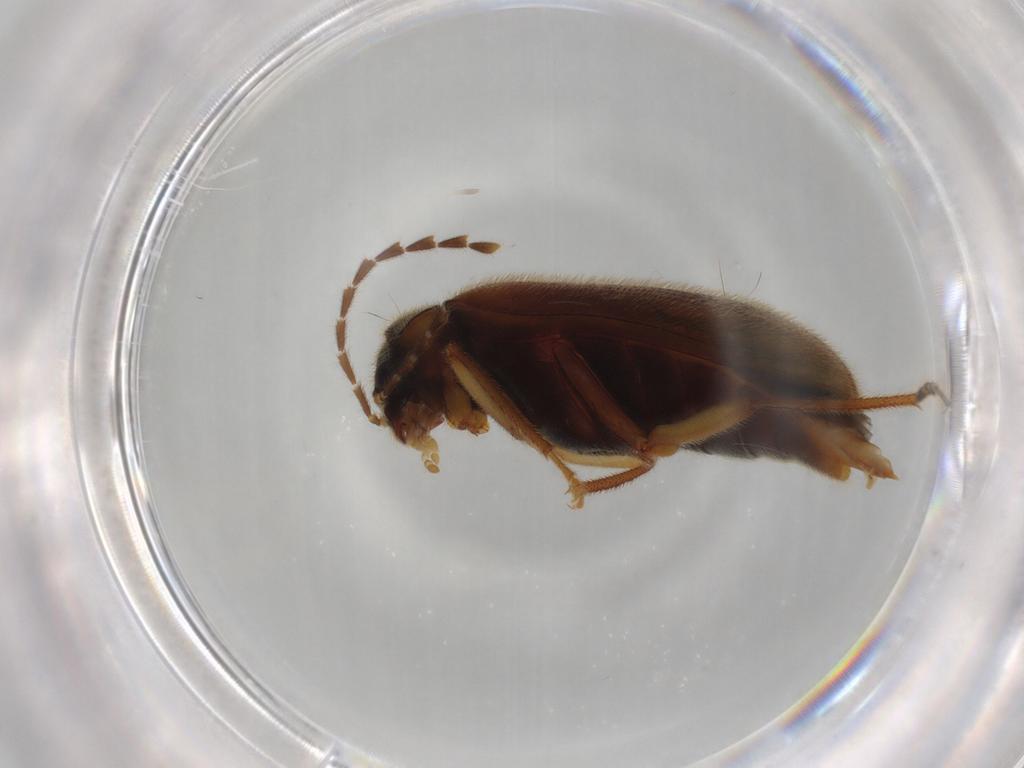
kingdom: Animalia
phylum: Arthropoda
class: Insecta
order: Coleoptera
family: Ptilodactylidae
